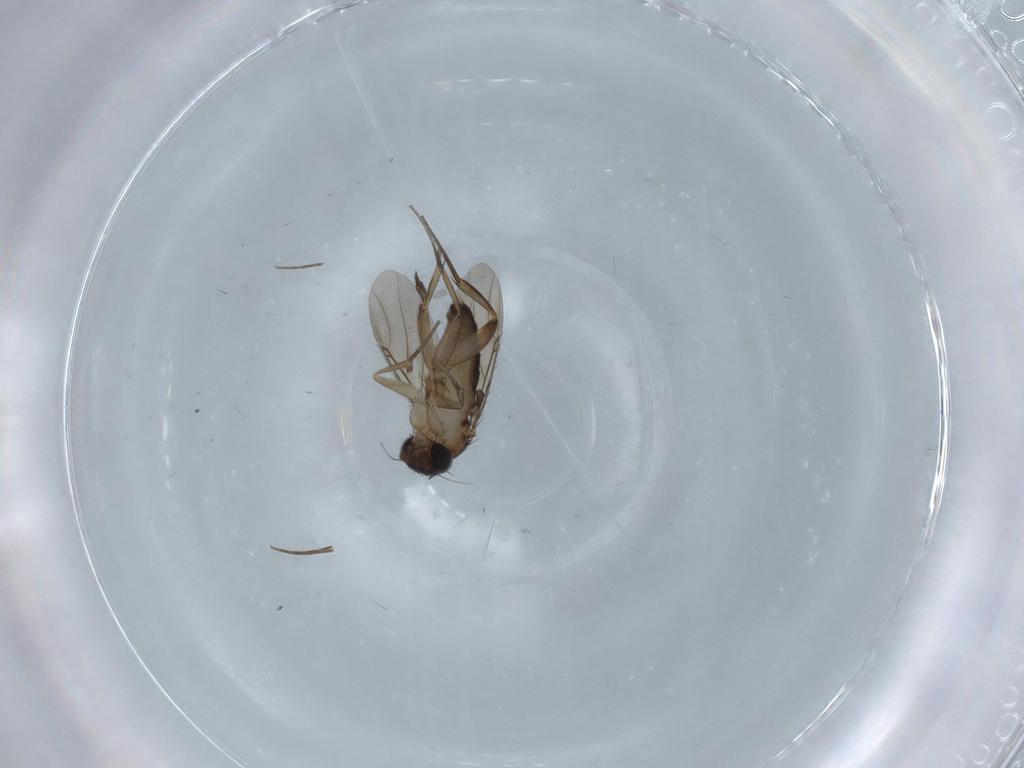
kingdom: Animalia
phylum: Arthropoda
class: Insecta
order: Diptera
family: Phoridae
